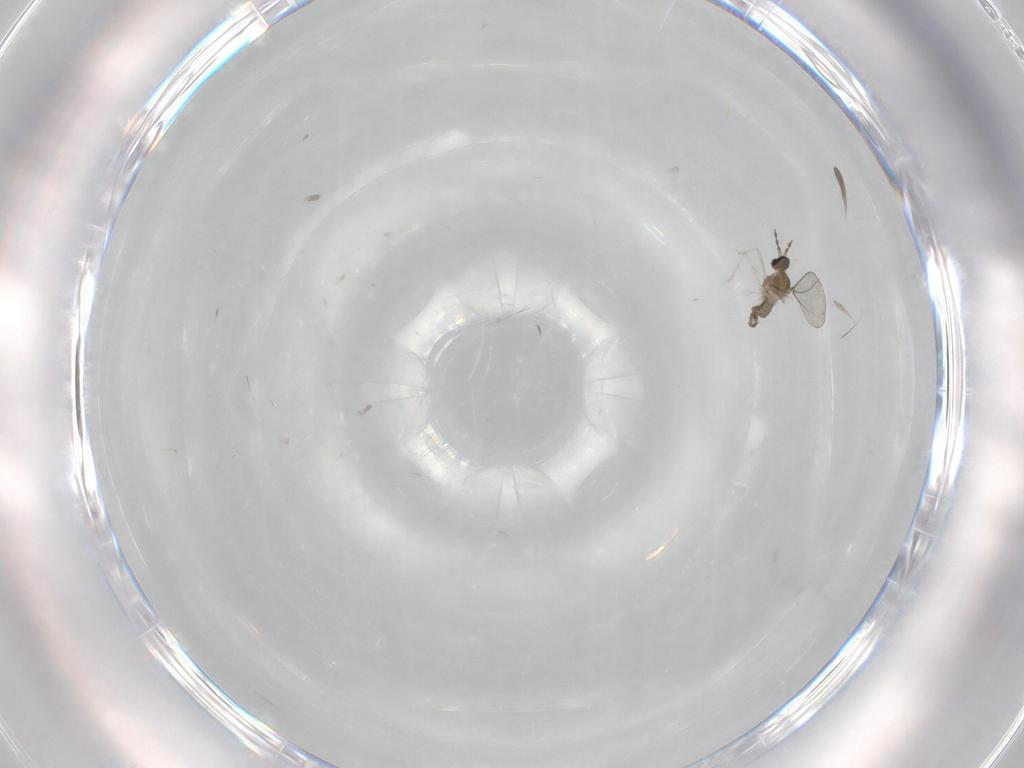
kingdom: Animalia
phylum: Arthropoda
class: Insecta
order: Diptera
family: Cecidomyiidae
